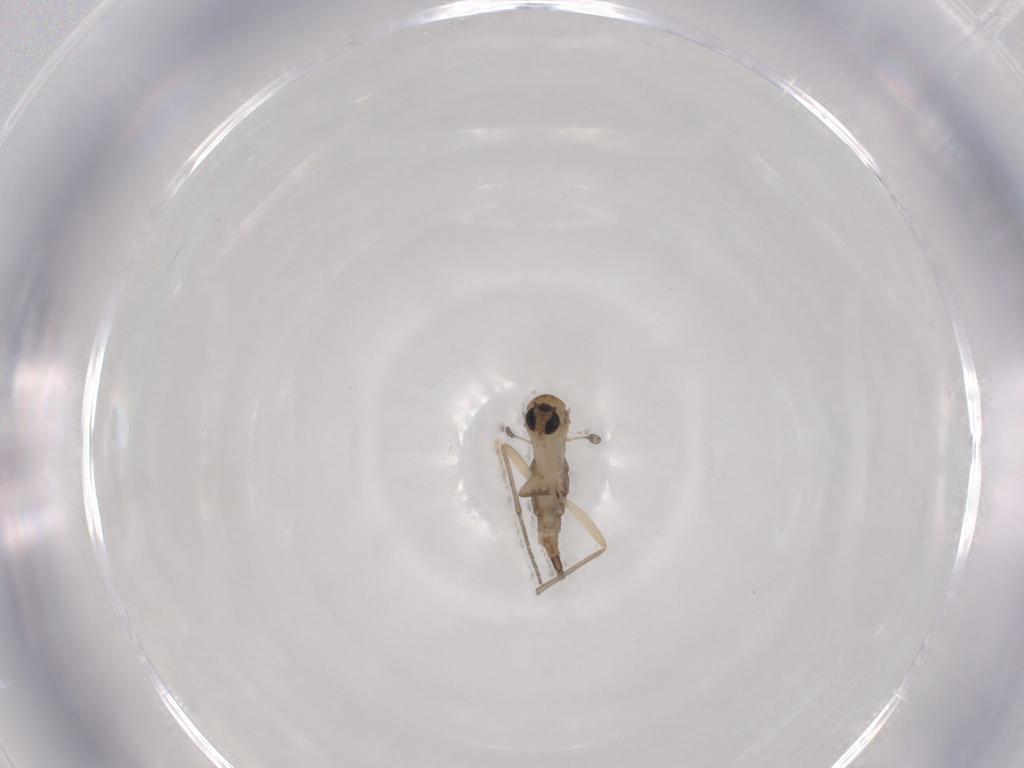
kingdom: Animalia
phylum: Arthropoda
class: Insecta
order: Diptera
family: Sciaridae
